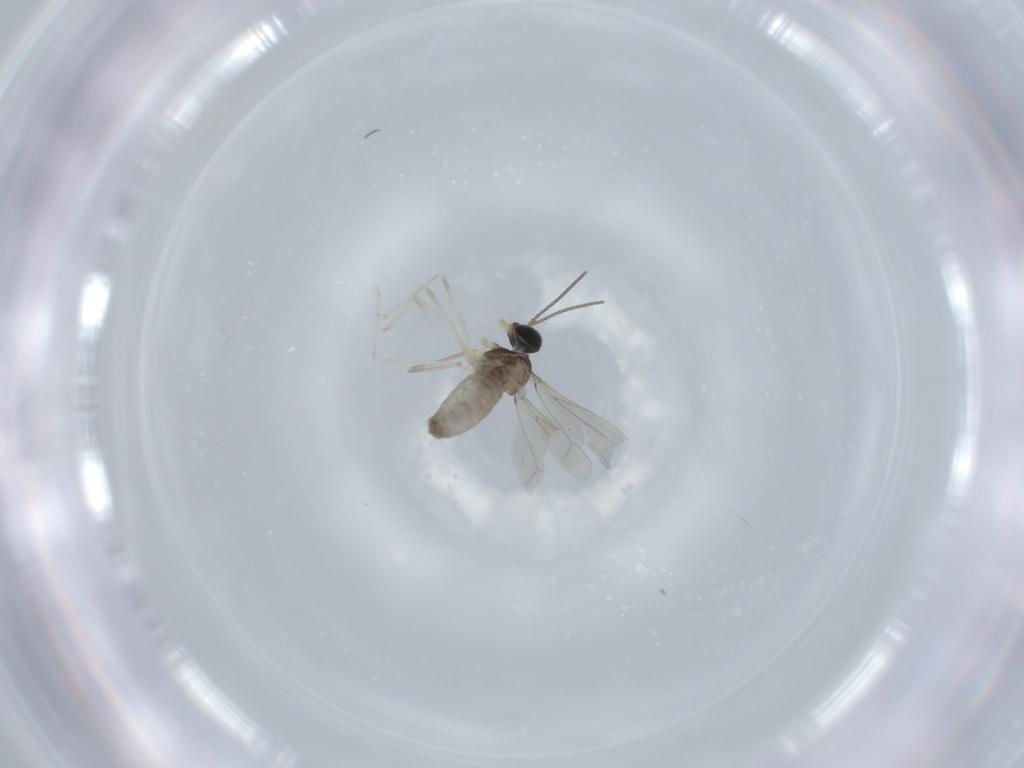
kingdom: Animalia
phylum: Arthropoda
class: Insecta
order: Diptera
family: Cecidomyiidae
